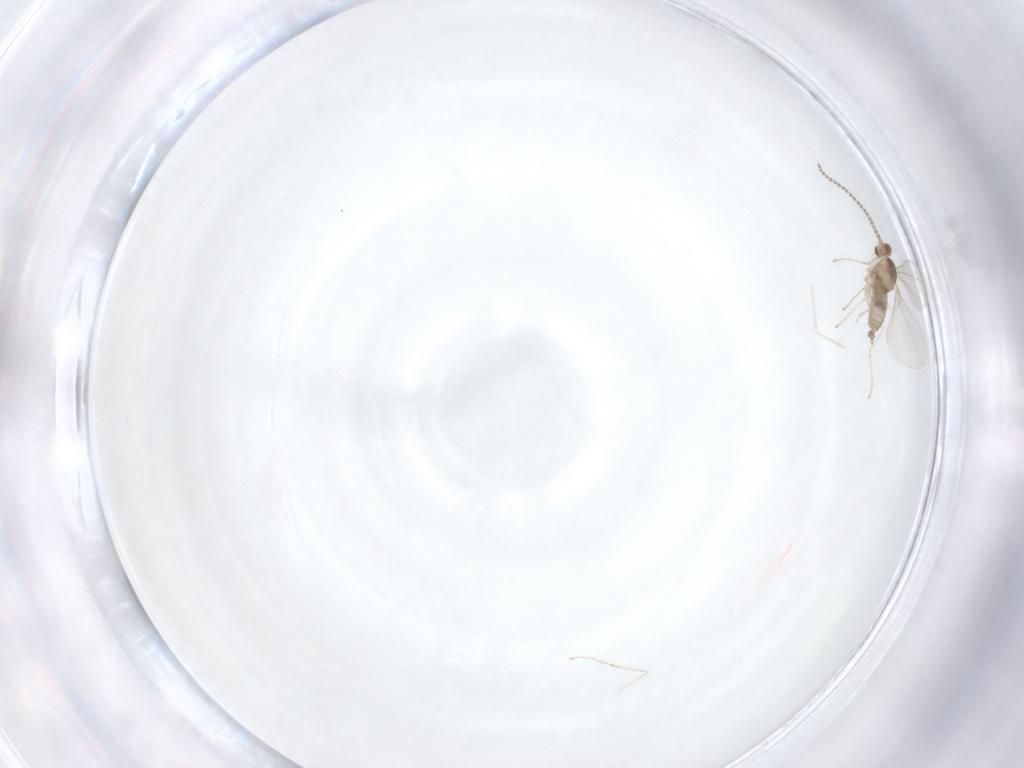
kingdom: Animalia
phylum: Arthropoda
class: Insecta
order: Diptera
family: Cecidomyiidae
